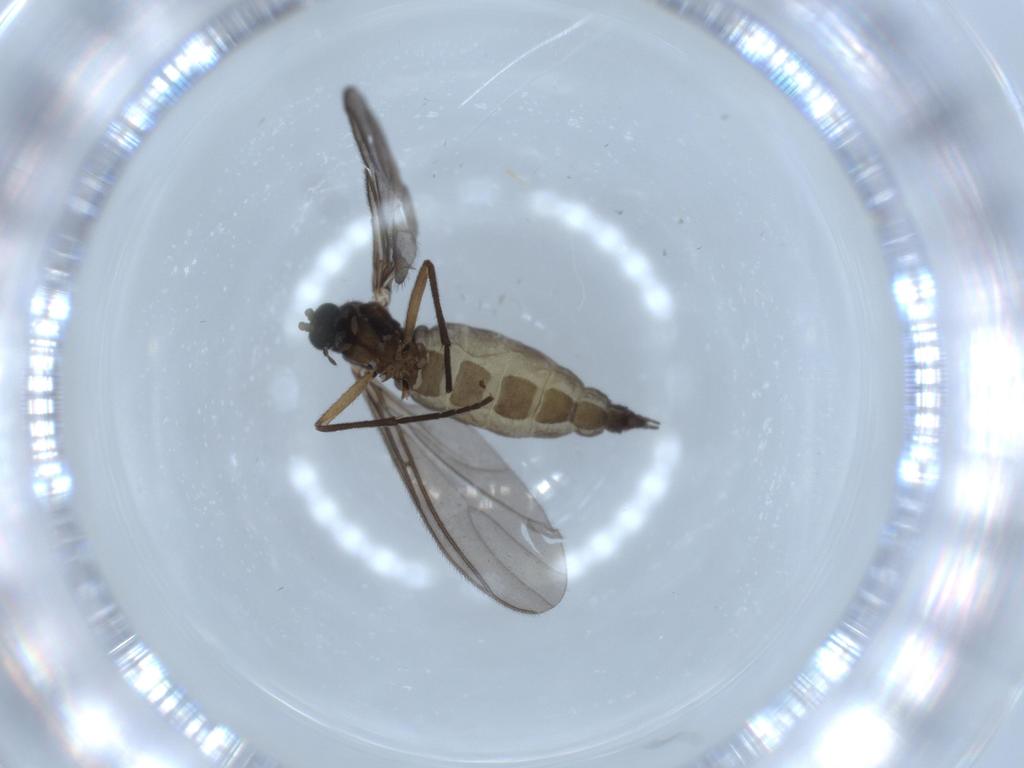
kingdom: Animalia
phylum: Arthropoda
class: Insecta
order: Diptera
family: Sciaridae
